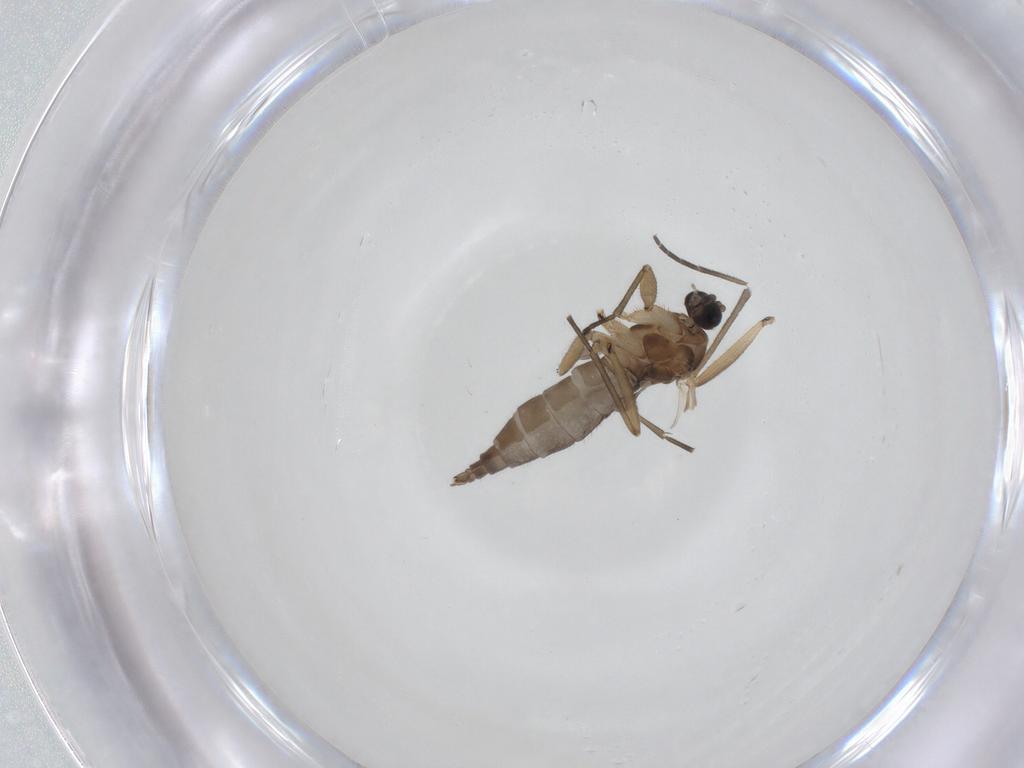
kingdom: Animalia
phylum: Arthropoda
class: Insecta
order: Diptera
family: Sciaridae
